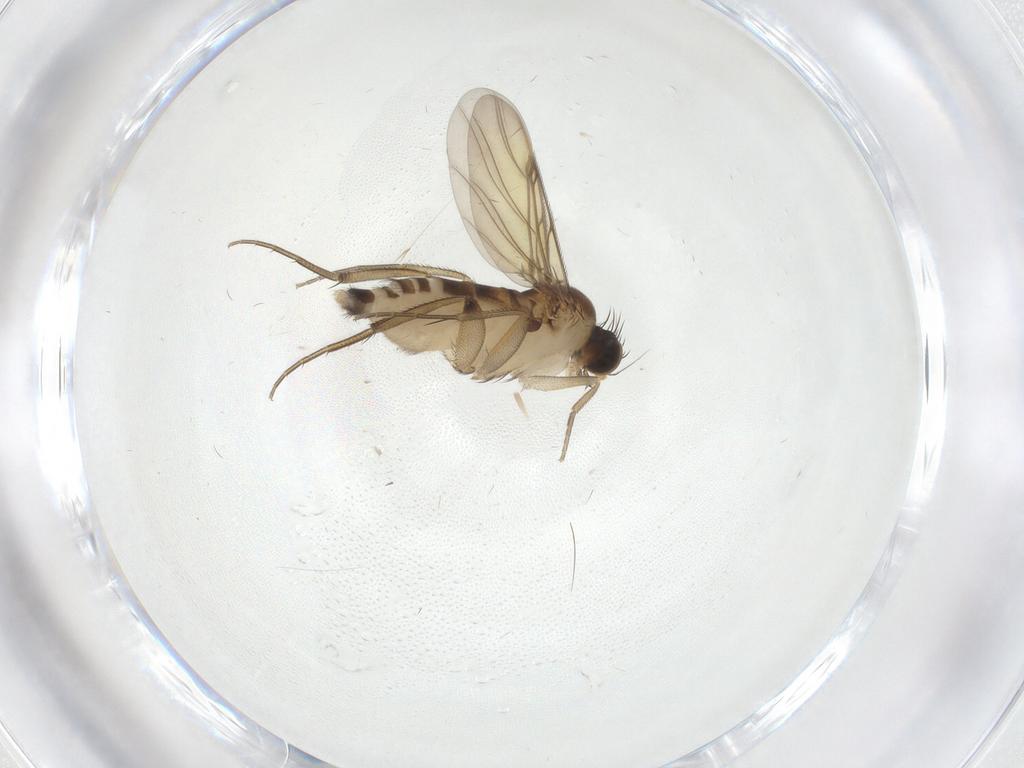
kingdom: Animalia
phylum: Arthropoda
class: Insecta
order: Diptera
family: Phoridae
